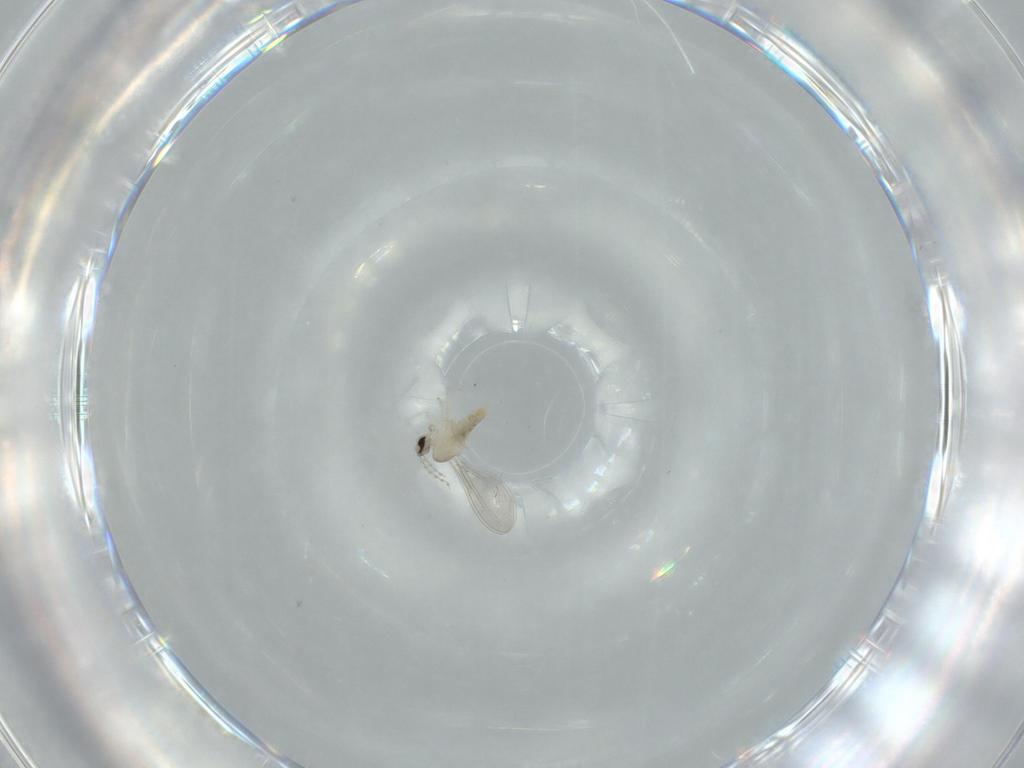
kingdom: Animalia
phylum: Arthropoda
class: Insecta
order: Diptera
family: Cecidomyiidae
